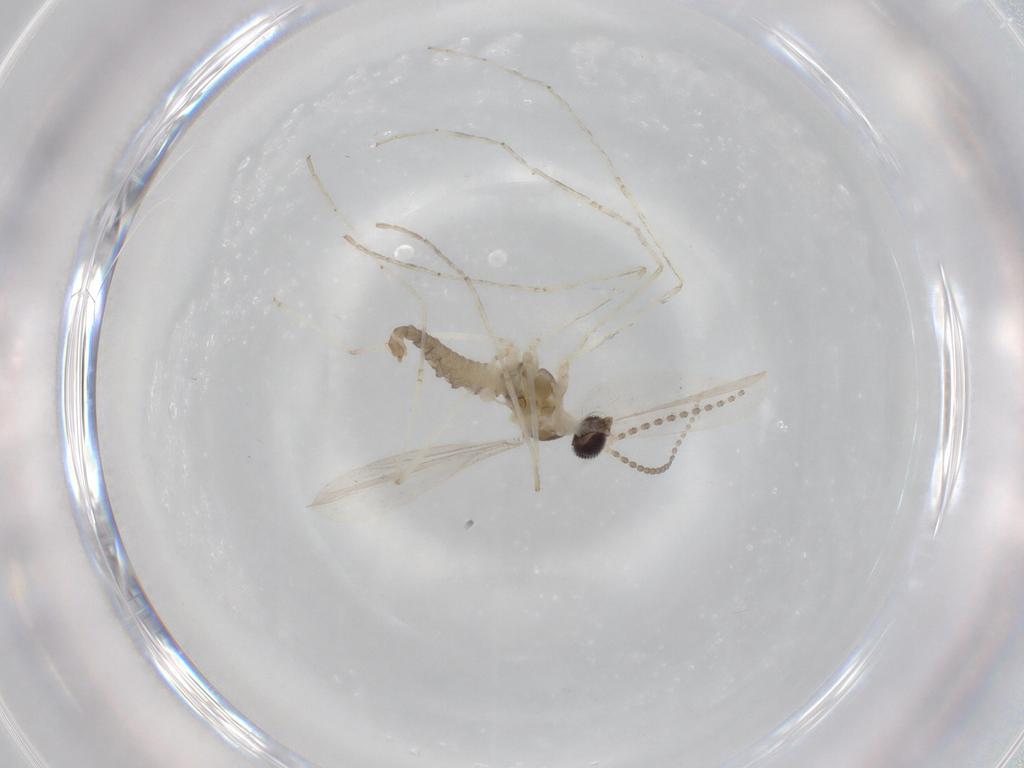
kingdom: Animalia
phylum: Arthropoda
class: Insecta
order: Diptera
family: Cecidomyiidae
